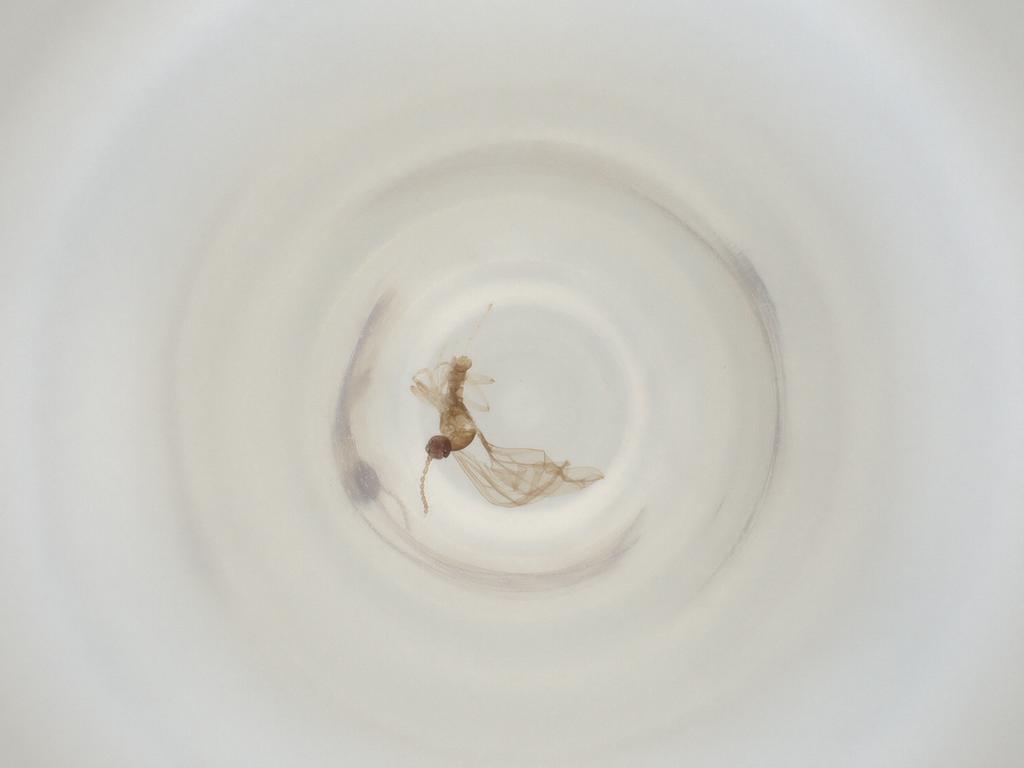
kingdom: Animalia
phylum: Arthropoda
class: Insecta
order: Diptera
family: Cecidomyiidae
